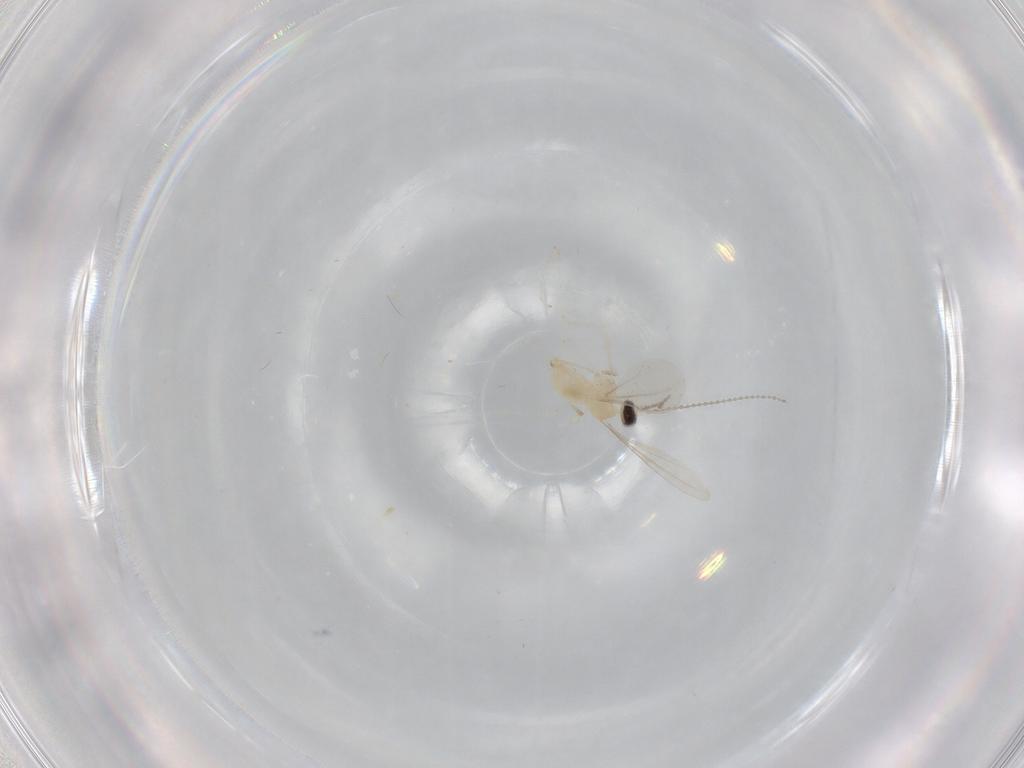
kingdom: Animalia
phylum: Arthropoda
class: Insecta
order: Diptera
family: Cecidomyiidae
